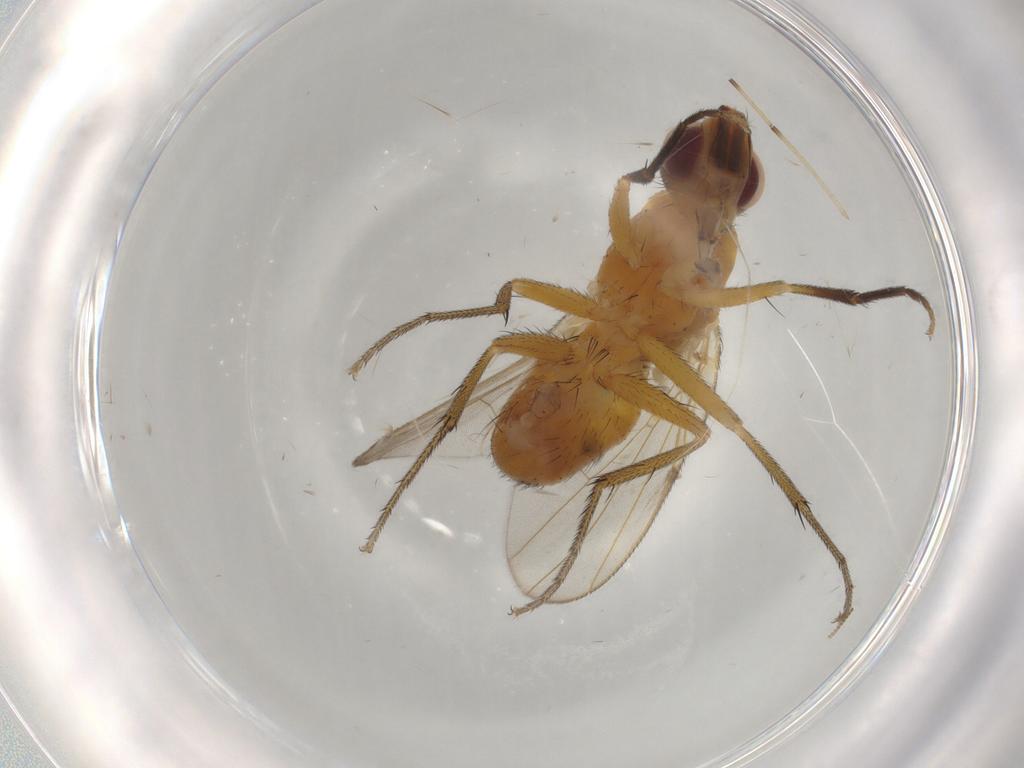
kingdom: Animalia
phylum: Arthropoda
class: Insecta
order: Diptera
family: Muscidae
